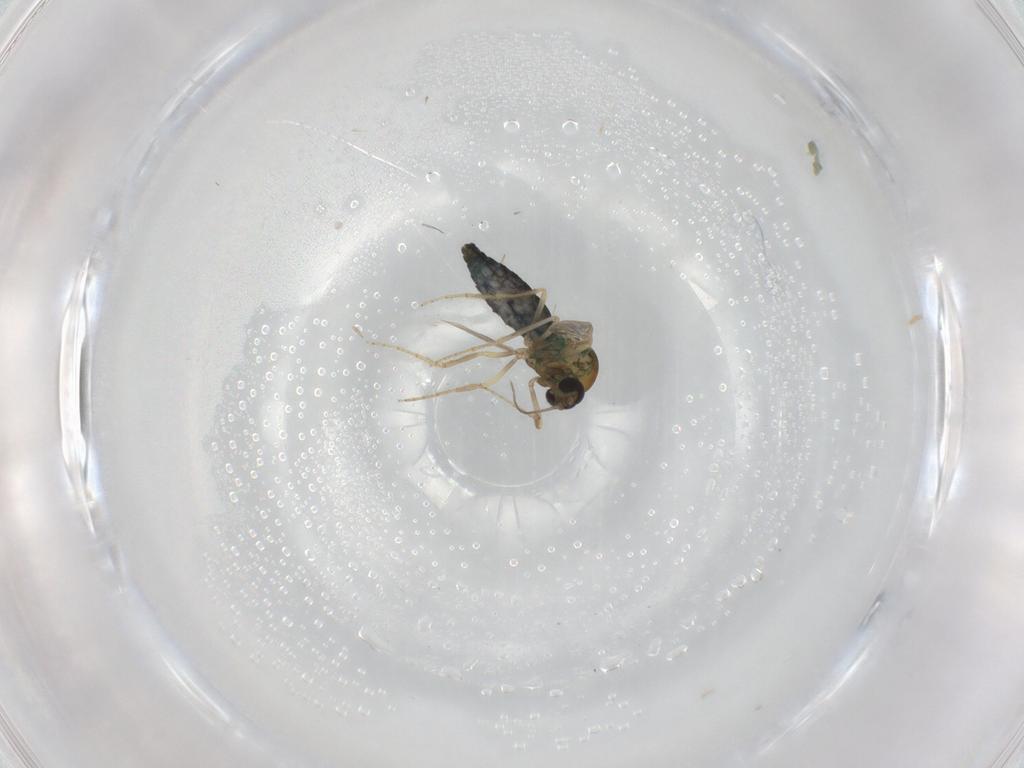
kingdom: Animalia
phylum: Arthropoda
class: Insecta
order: Diptera
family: Ceratopogonidae
